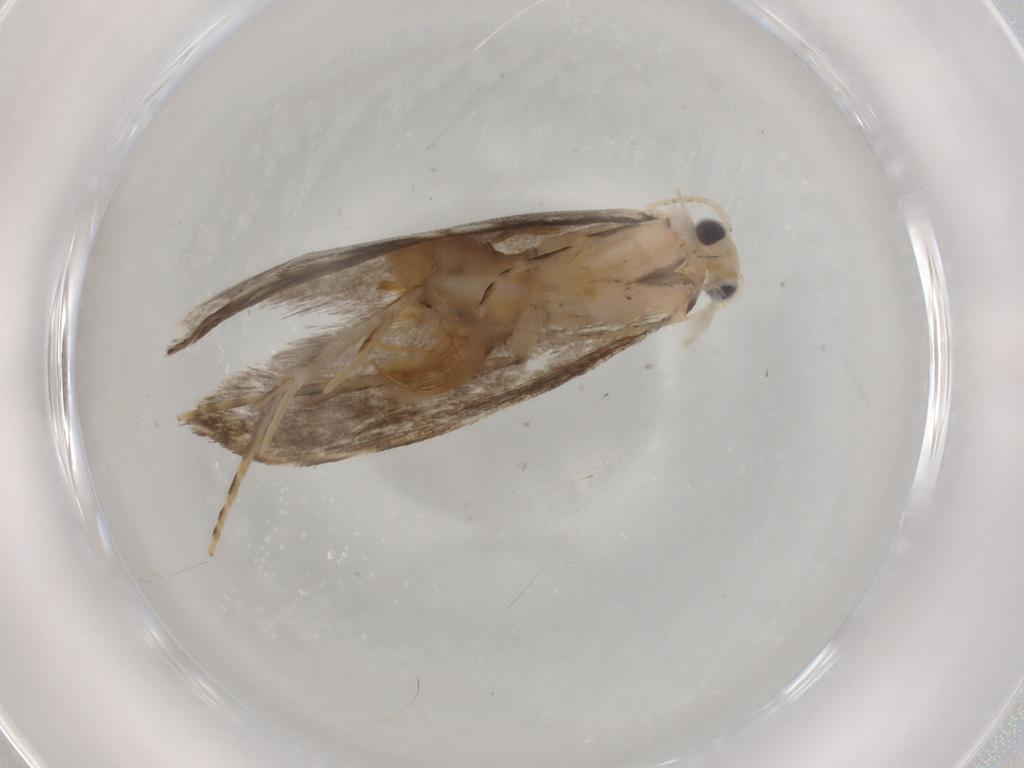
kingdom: Animalia
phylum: Arthropoda
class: Insecta
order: Lepidoptera
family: Tineidae
